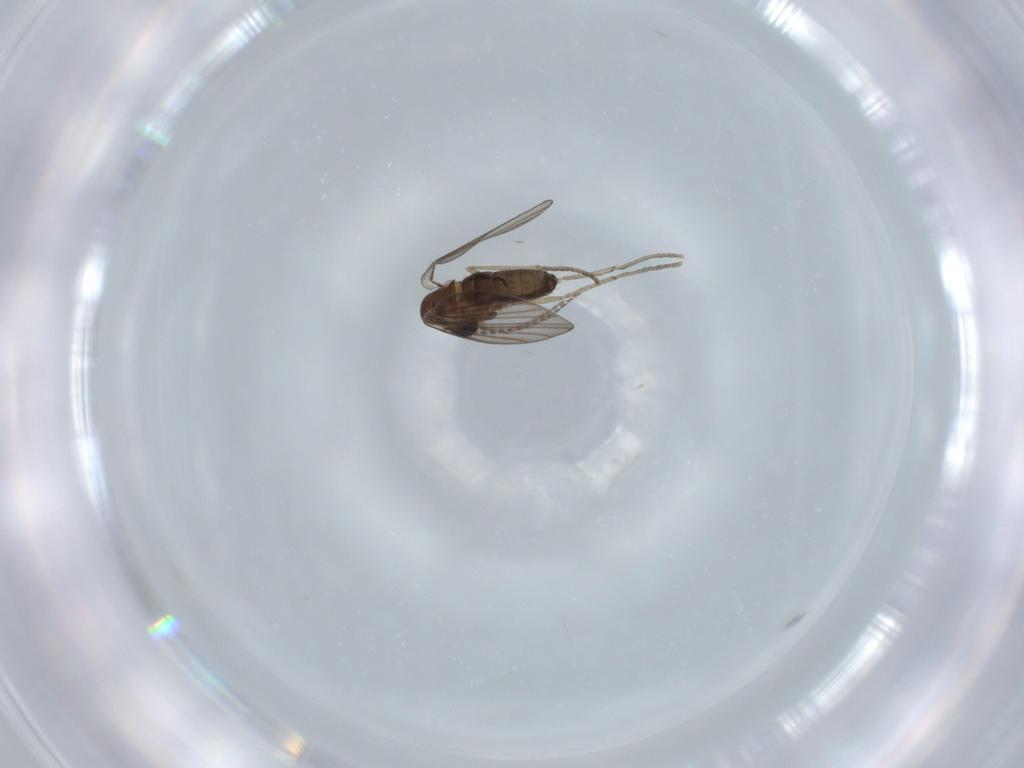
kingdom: Animalia
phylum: Arthropoda
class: Insecta
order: Diptera
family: Psychodidae
